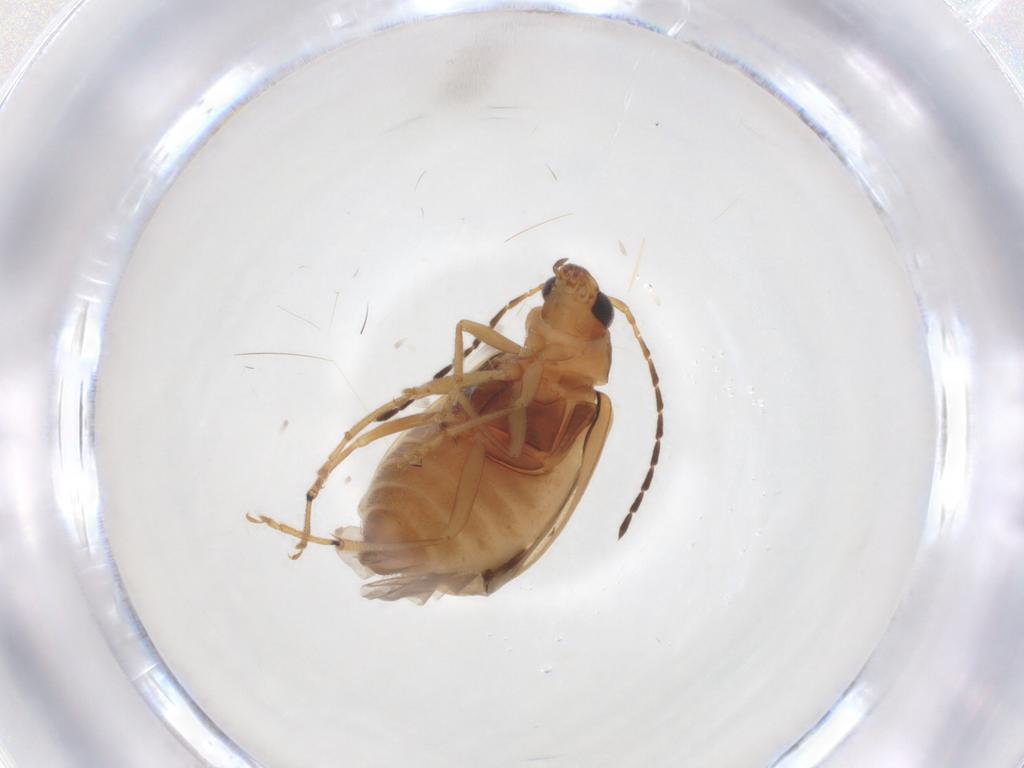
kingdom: Animalia
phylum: Arthropoda
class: Insecta
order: Coleoptera
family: Chrysomelidae
